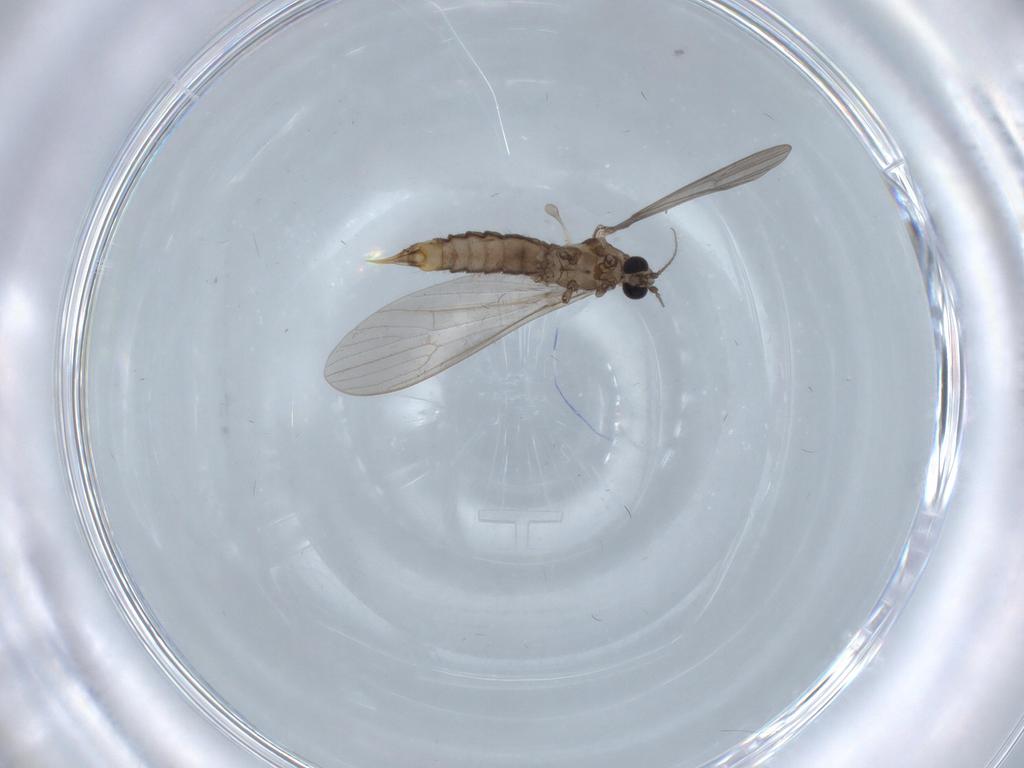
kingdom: Animalia
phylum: Arthropoda
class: Insecta
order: Diptera
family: Limoniidae
